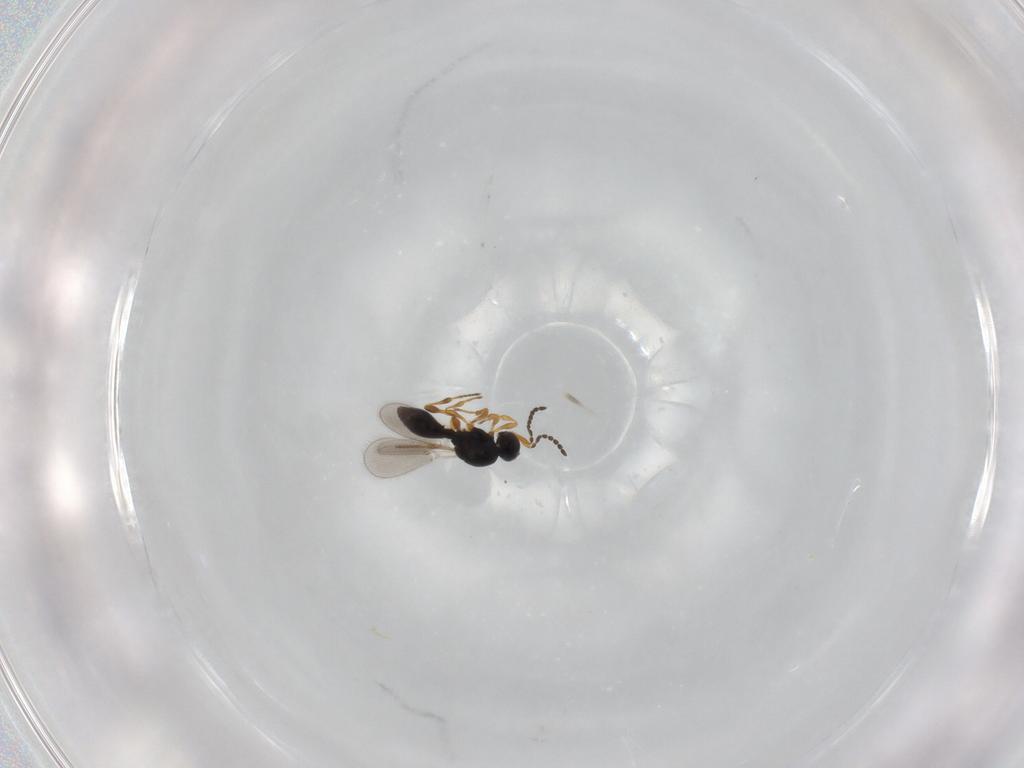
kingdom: Animalia
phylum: Arthropoda
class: Insecta
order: Hymenoptera
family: Platygastridae
